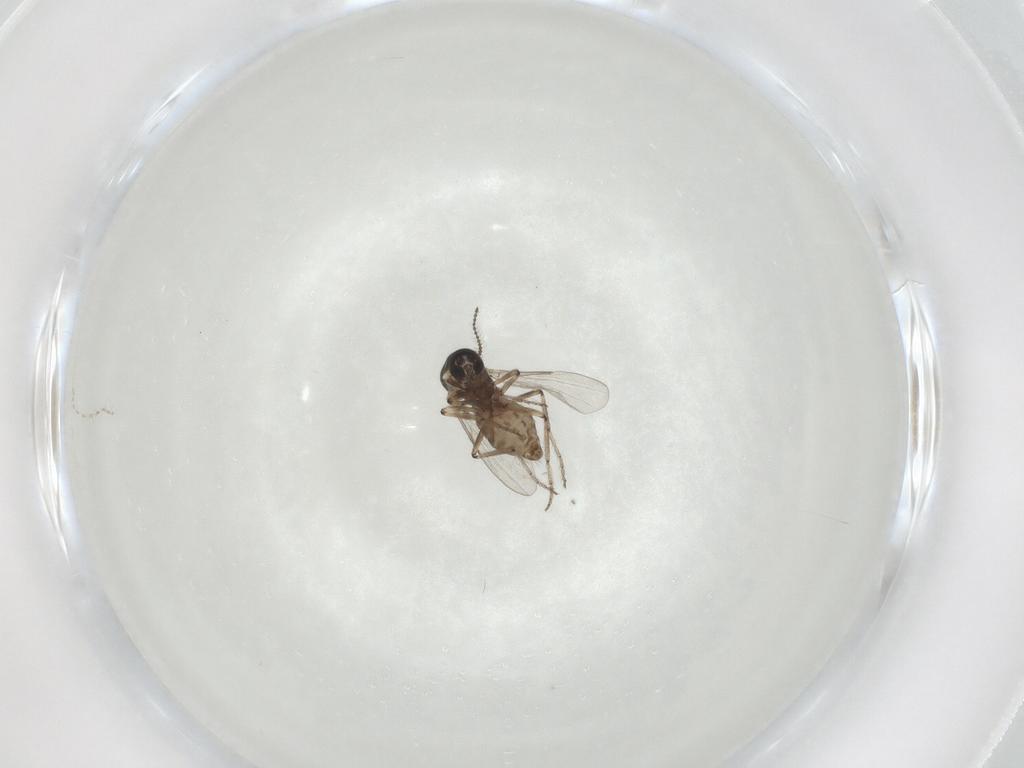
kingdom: Animalia
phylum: Arthropoda
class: Insecta
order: Diptera
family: Ceratopogonidae
